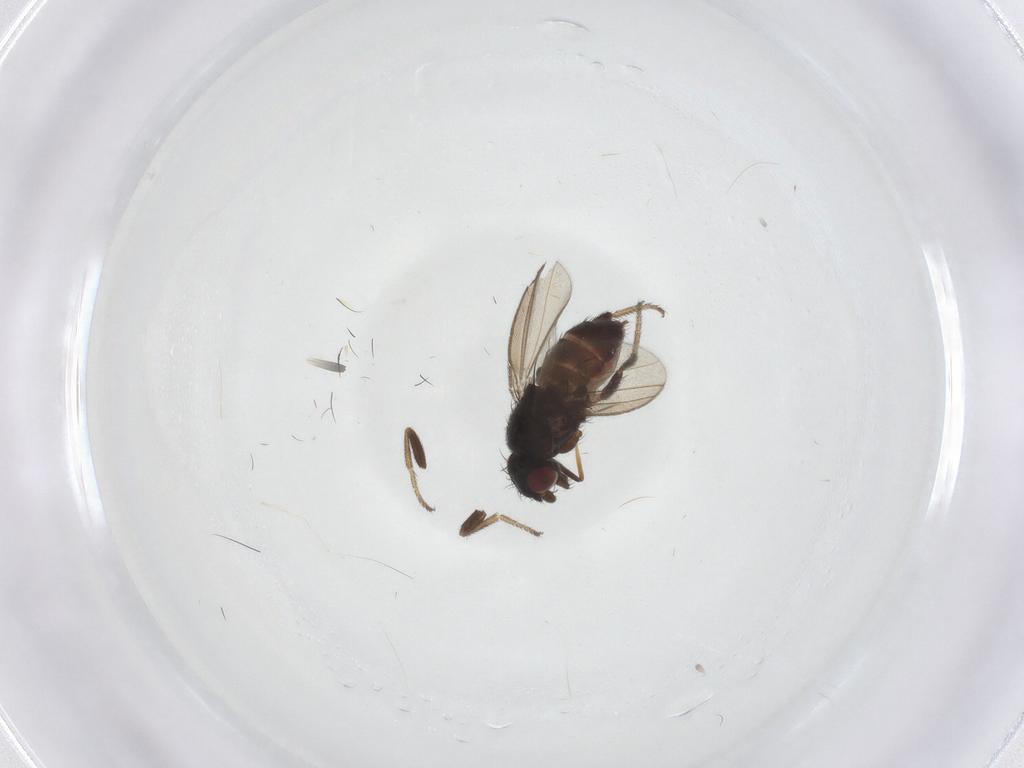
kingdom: Animalia
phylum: Arthropoda
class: Insecta
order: Diptera
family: Milichiidae
